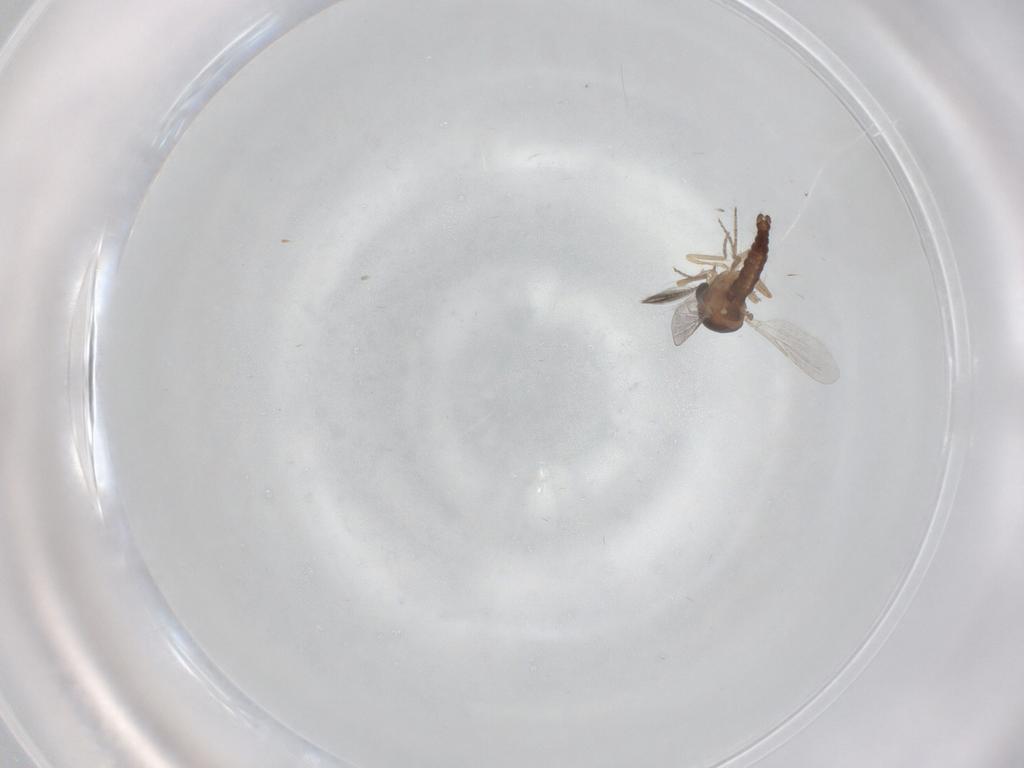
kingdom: Animalia
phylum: Arthropoda
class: Insecta
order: Diptera
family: Ceratopogonidae
